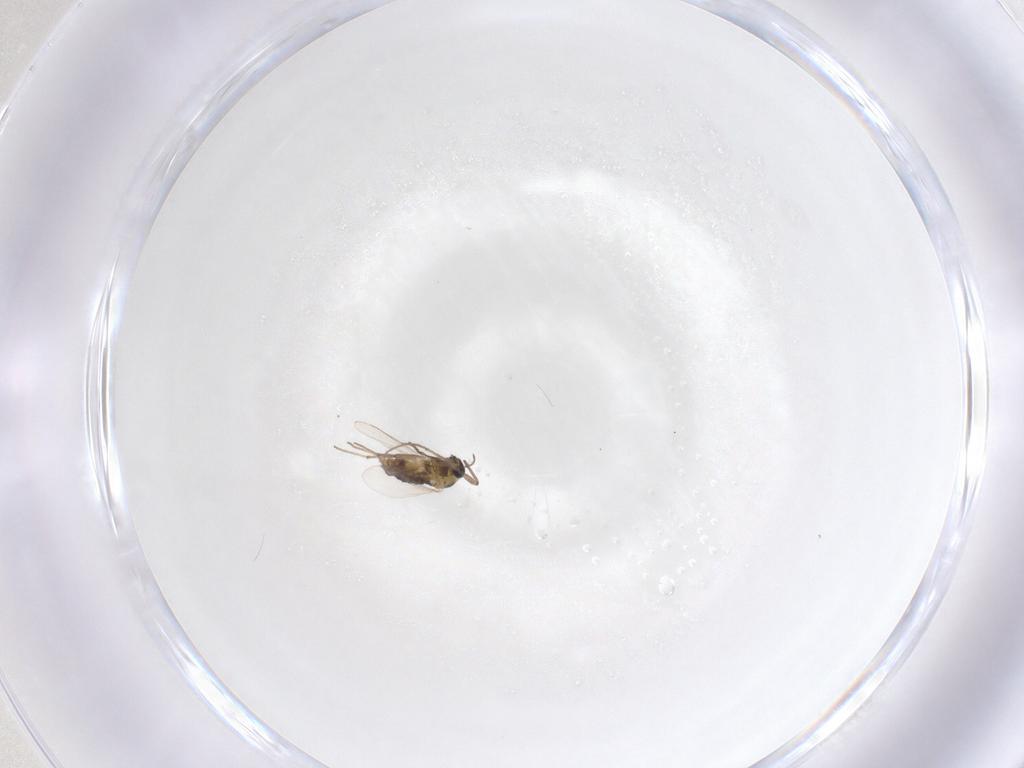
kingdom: Animalia
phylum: Arthropoda
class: Insecta
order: Diptera
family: Chironomidae
